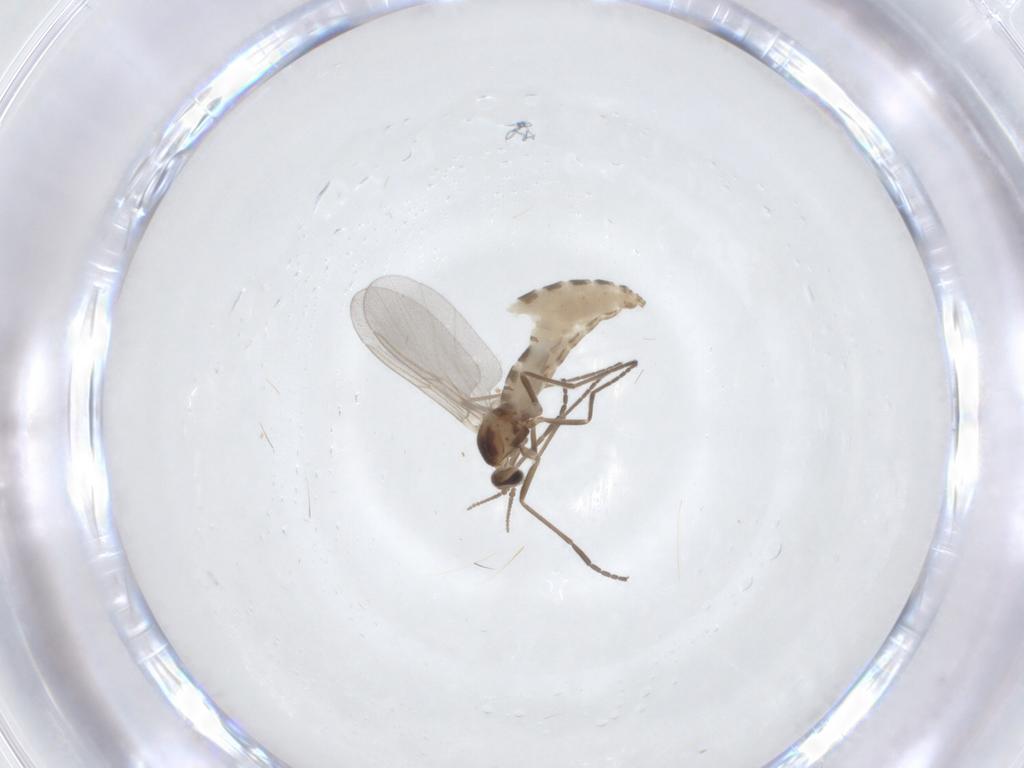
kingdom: Animalia
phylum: Arthropoda
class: Insecta
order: Diptera
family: Cecidomyiidae
